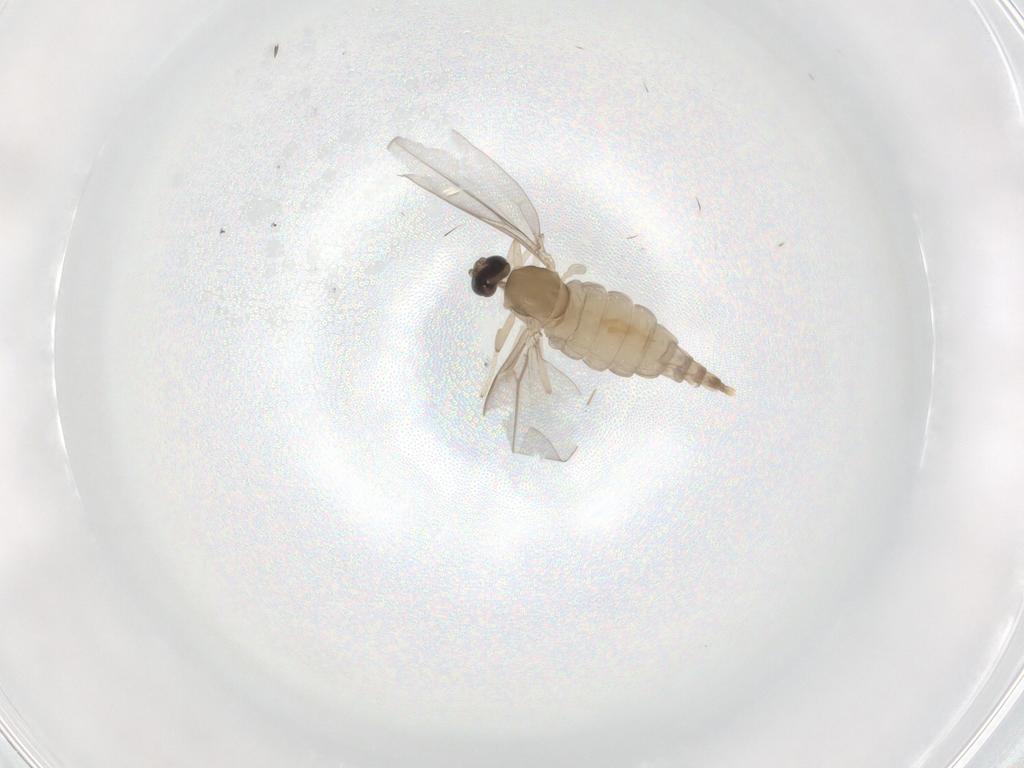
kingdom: Animalia
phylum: Arthropoda
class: Insecta
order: Diptera
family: Cecidomyiidae
